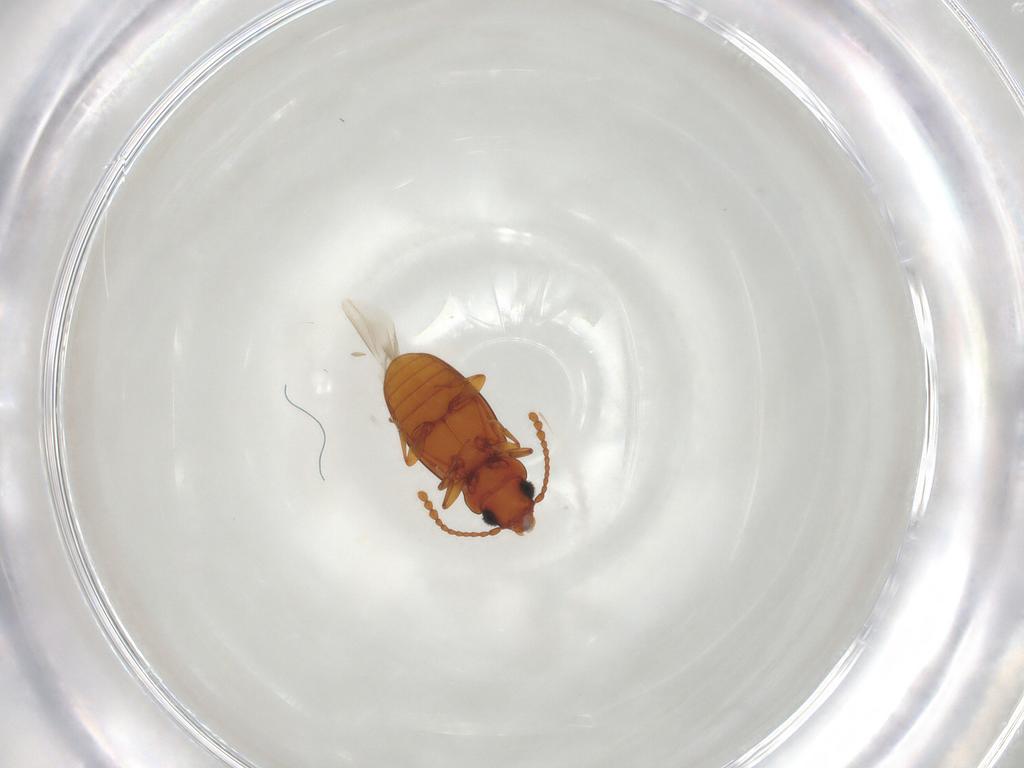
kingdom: Animalia
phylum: Arthropoda
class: Insecta
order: Coleoptera
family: Laemophloeidae
